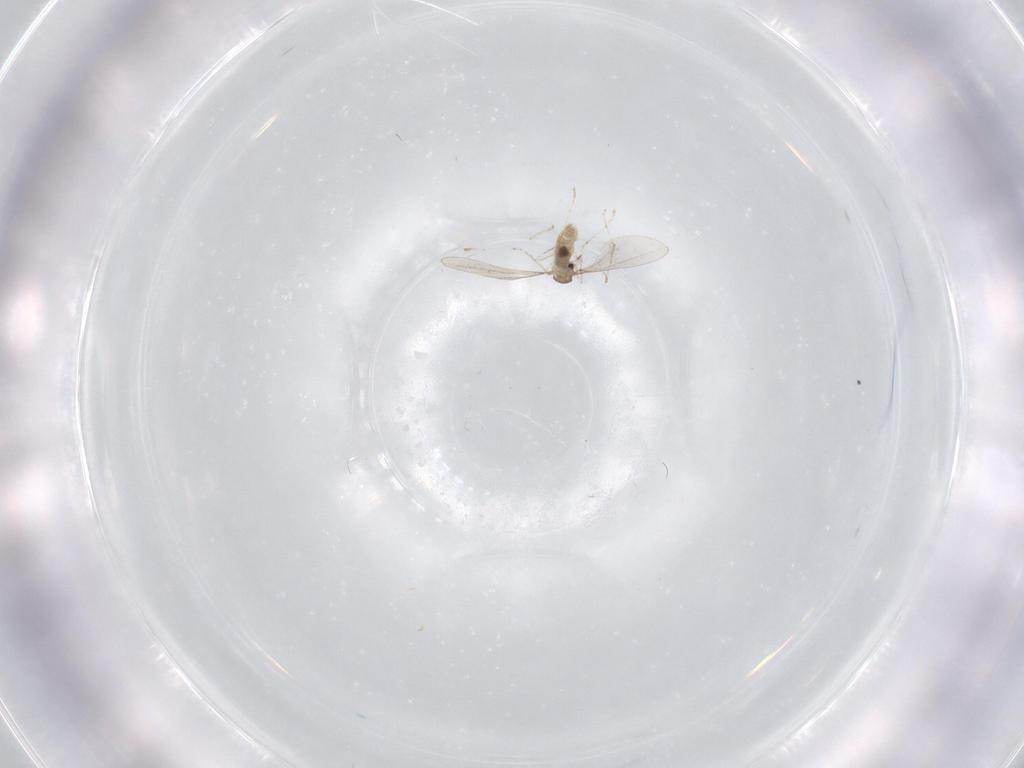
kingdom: Animalia
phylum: Arthropoda
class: Insecta
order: Diptera
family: Cecidomyiidae
